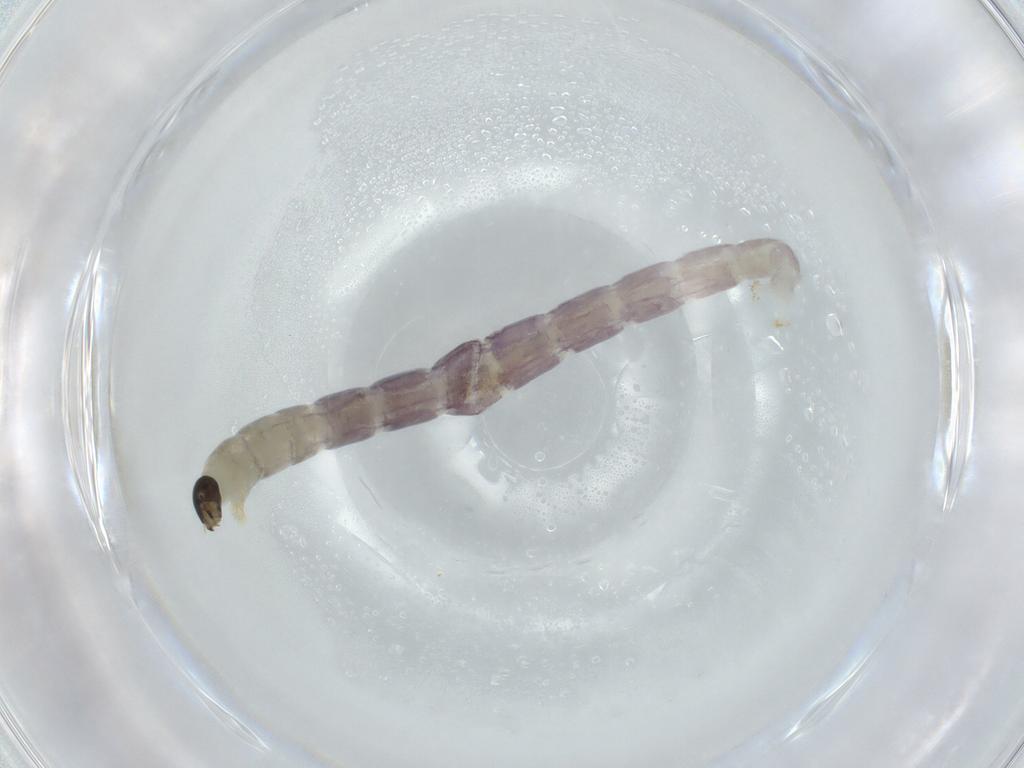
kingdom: Animalia
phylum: Arthropoda
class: Insecta
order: Diptera
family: Chironomidae
